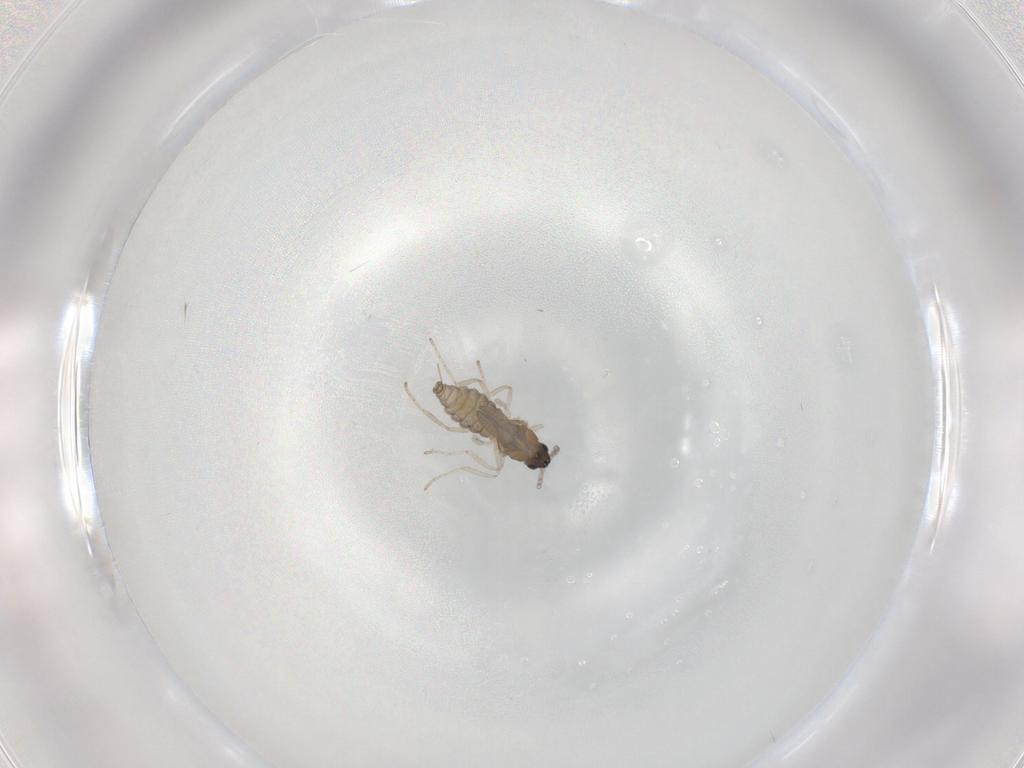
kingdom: Animalia
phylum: Arthropoda
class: Insecta
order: Diptera
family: Cecidomyiidae
